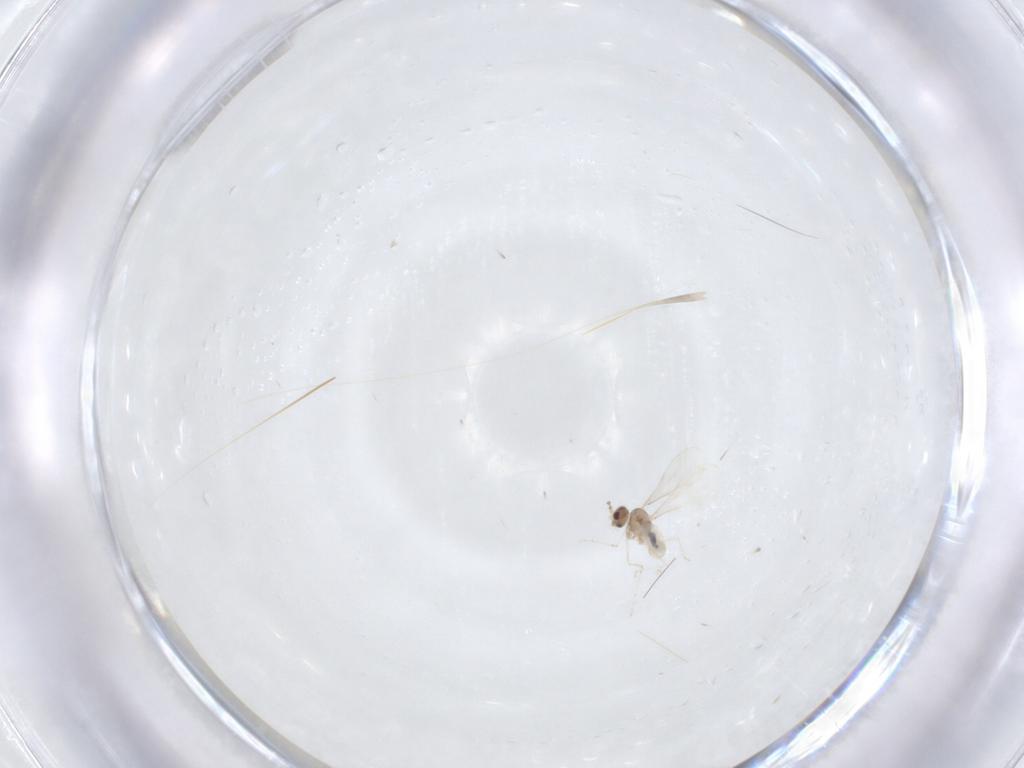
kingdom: Animalia
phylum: Arthropoda
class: Insecta
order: Diptera
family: Cecidomyiidae
